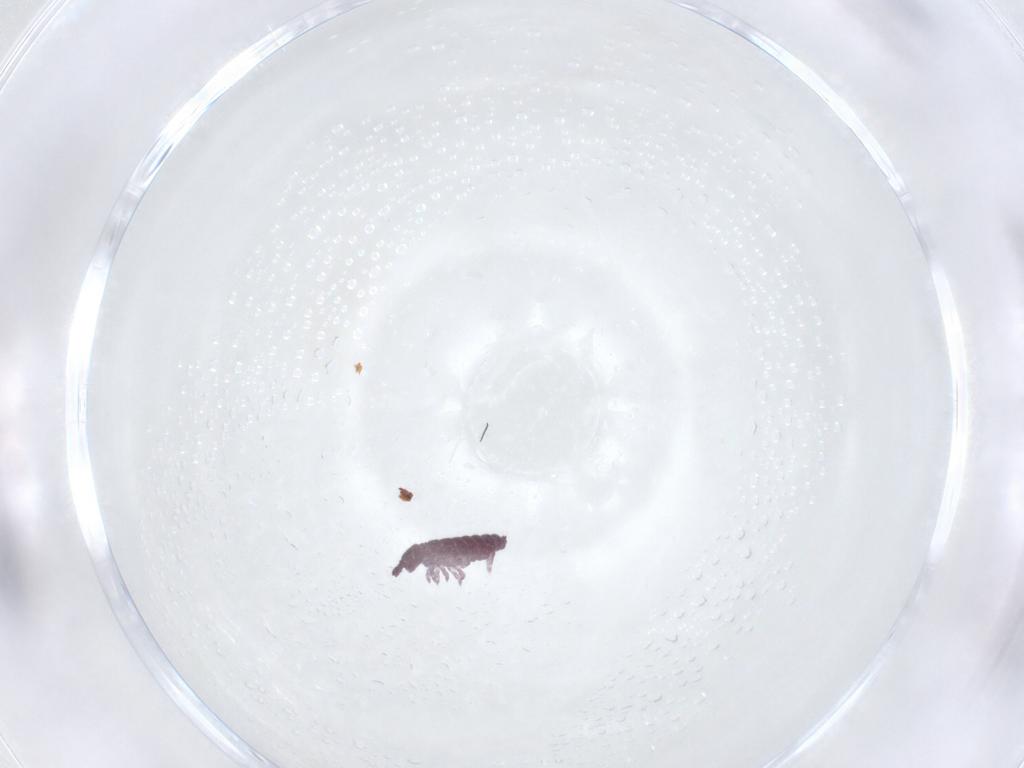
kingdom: Animalia
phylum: Arthropoda
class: Collembola
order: Poduromorpha
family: Hypogastruridae
